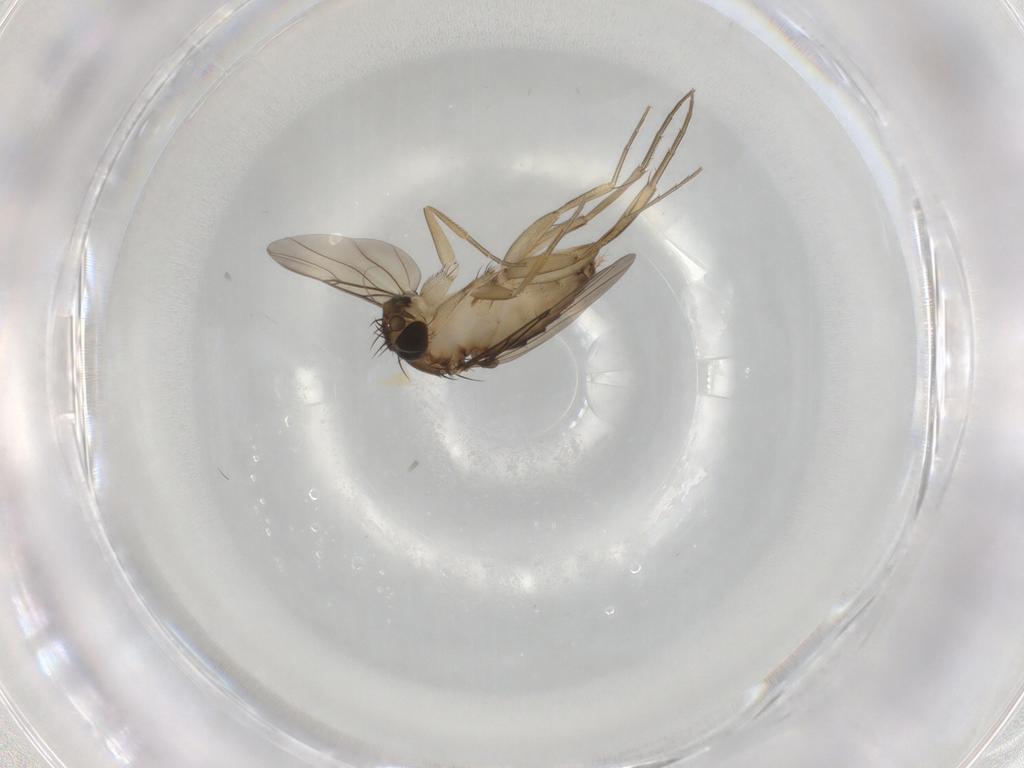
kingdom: Animalia
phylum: Arthropoda
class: Insecta
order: Diptera
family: Phoridae
